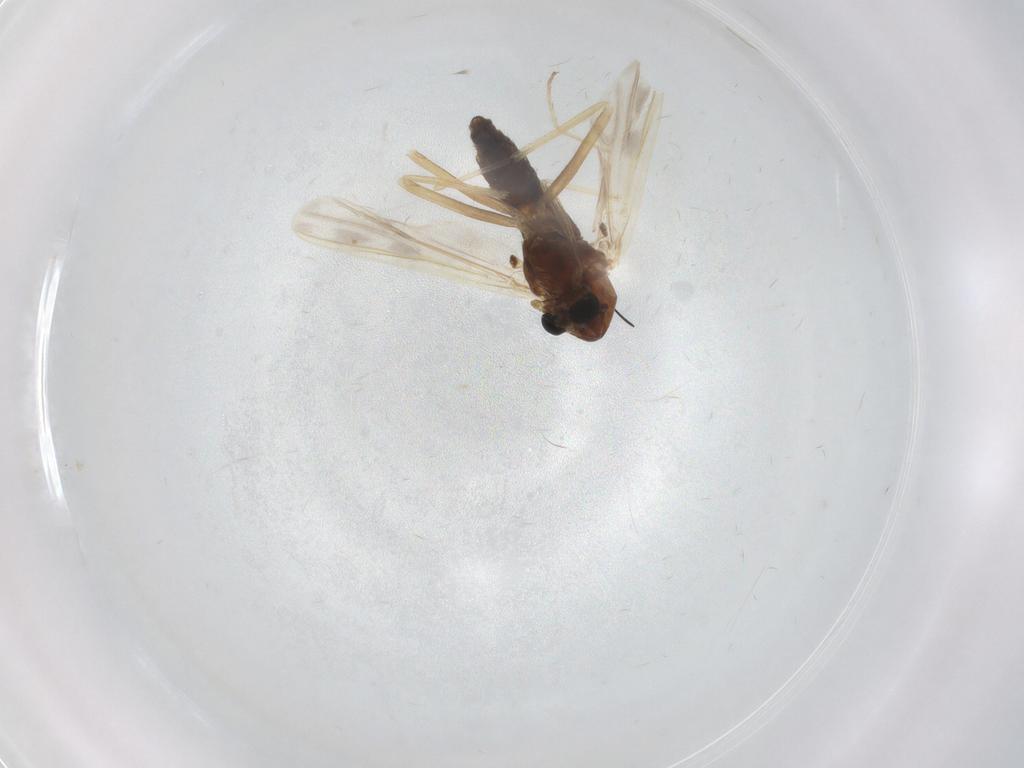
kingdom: Animalia
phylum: Arthropoda
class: Insecta
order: Diptera
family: Chironomidae
